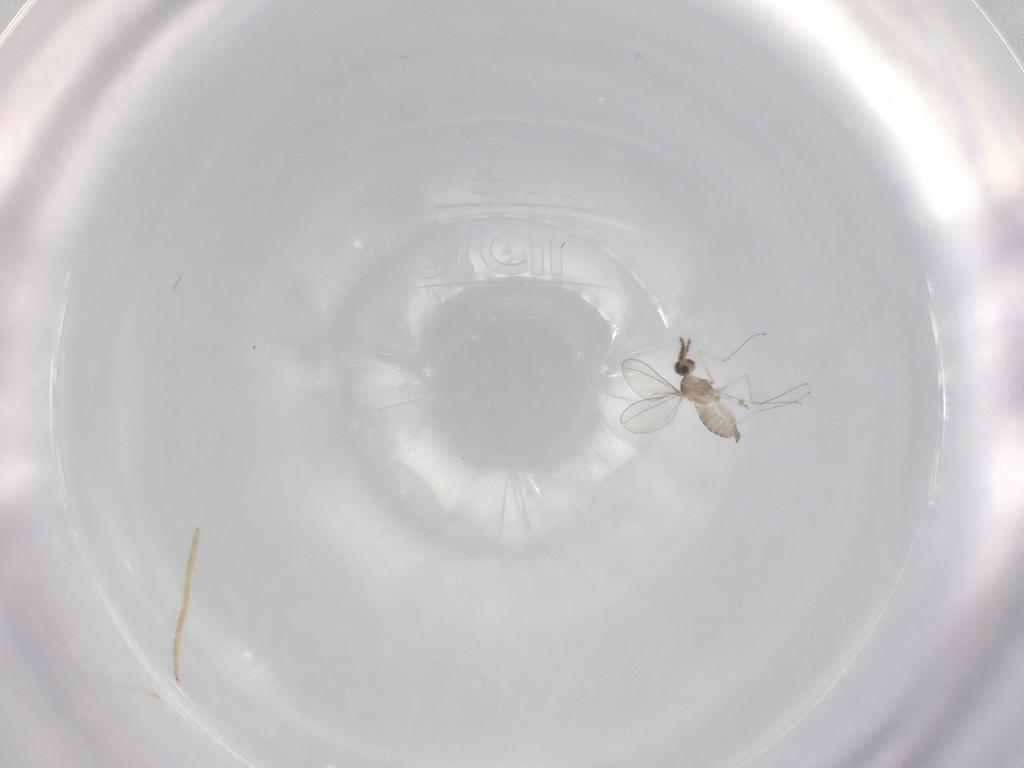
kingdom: Animalia
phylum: Arthropoda
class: Insecta
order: Diptera
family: Cecidomyiidae
